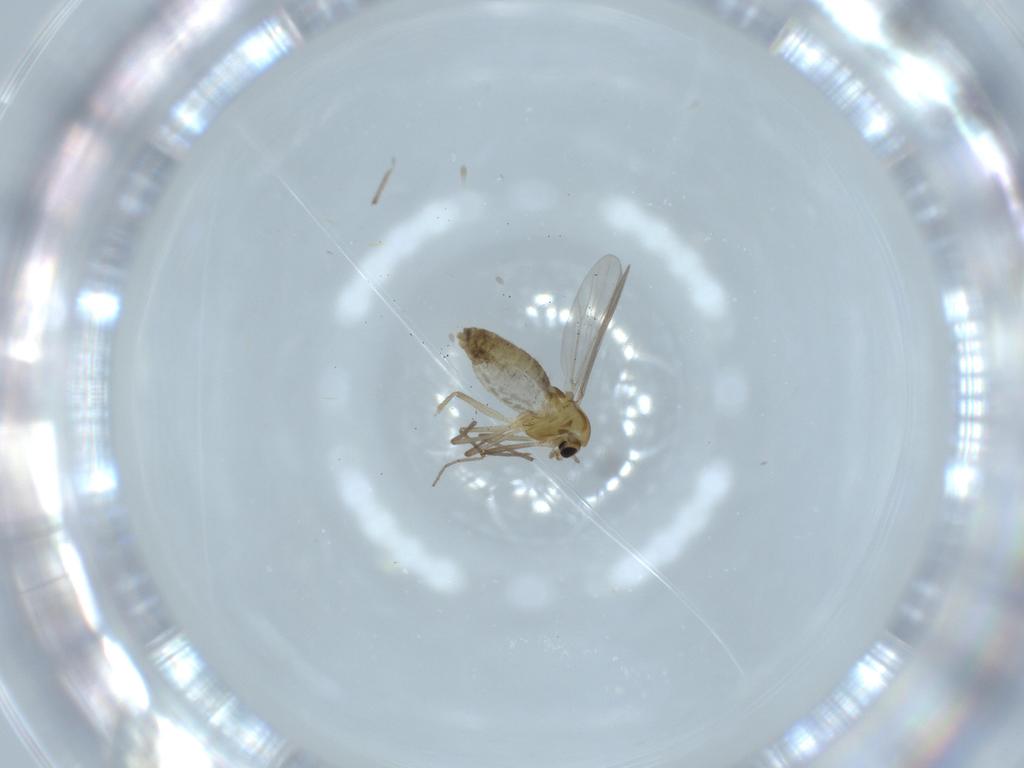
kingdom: Animalia
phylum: Arthropoda
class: Insecta
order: Diptera
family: Chironomidae
